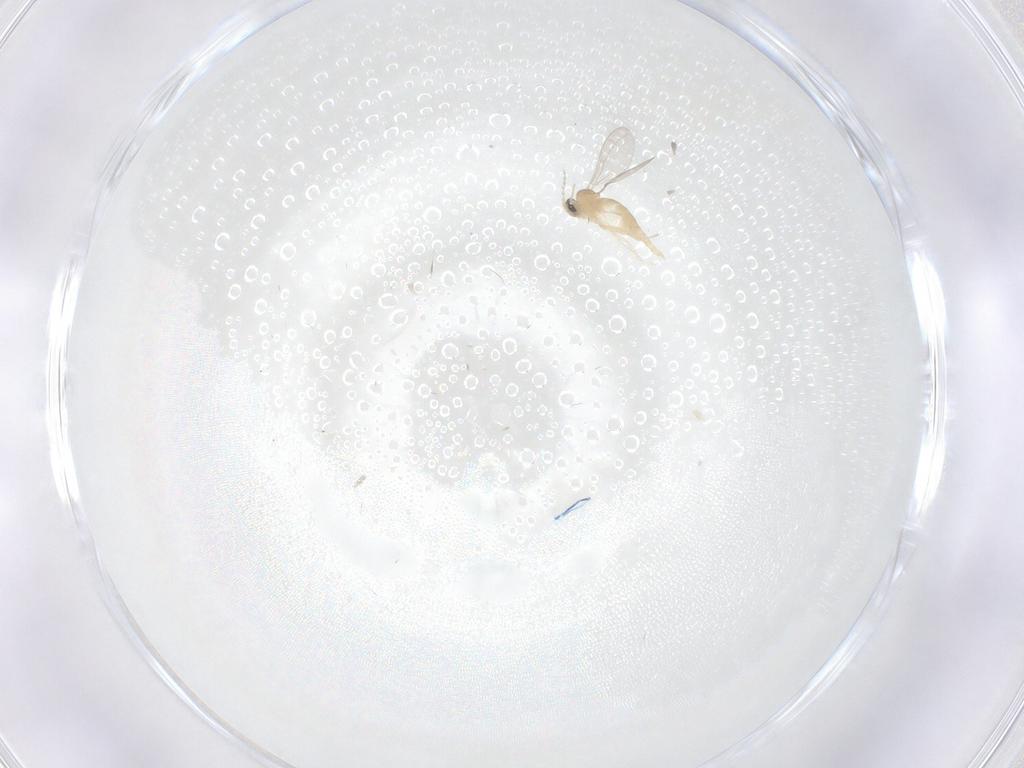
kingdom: Animalia
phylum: Arthropoda
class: Insecta
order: Diptera
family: Cecidomyiidae
